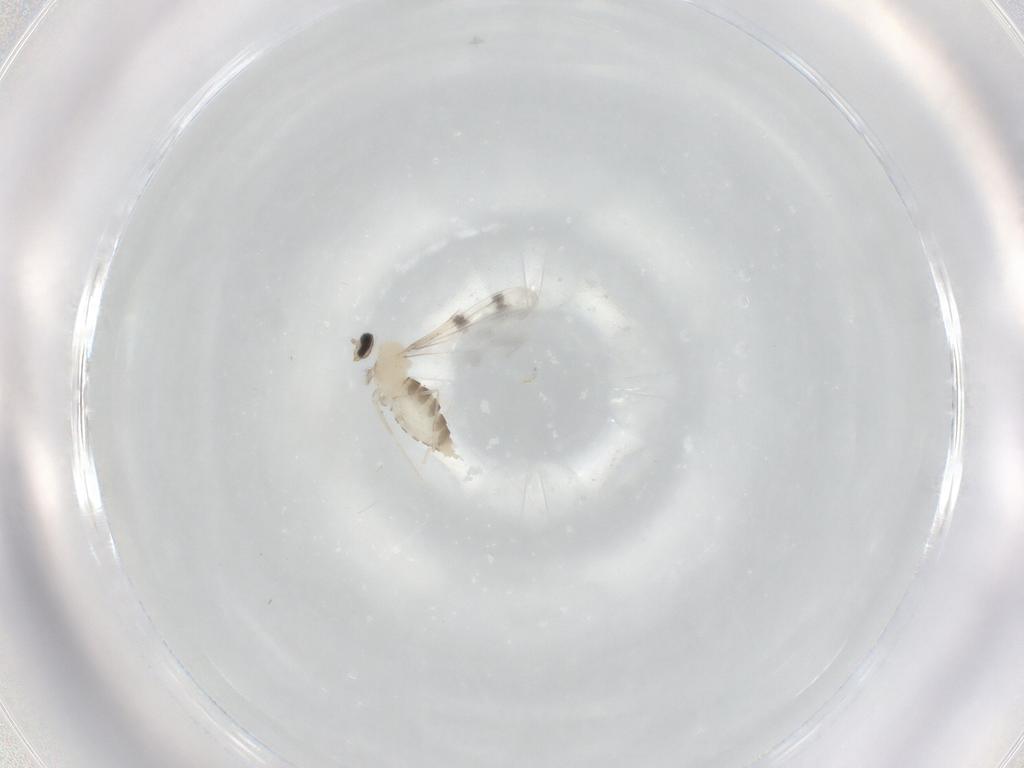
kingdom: Animalia
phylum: Arthropoda
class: Insecta
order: Diptera
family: Cecidomyiidae
